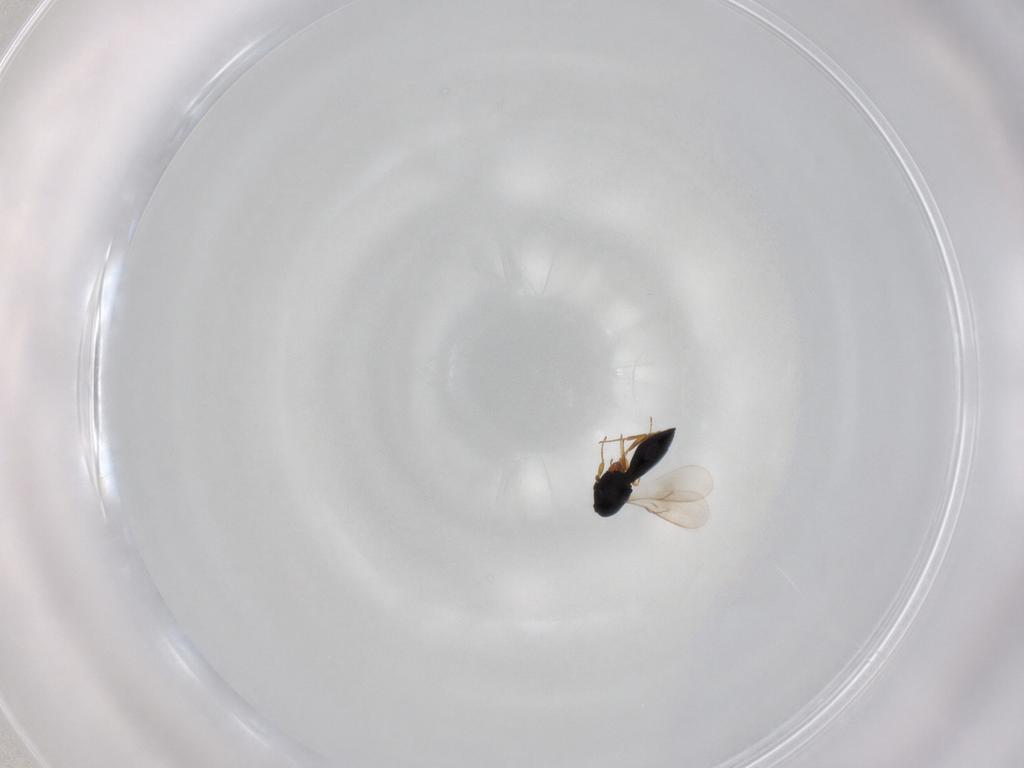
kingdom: Animalia
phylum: Arthropoda
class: Insecta
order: Hymenoptera
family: Scelionidae
